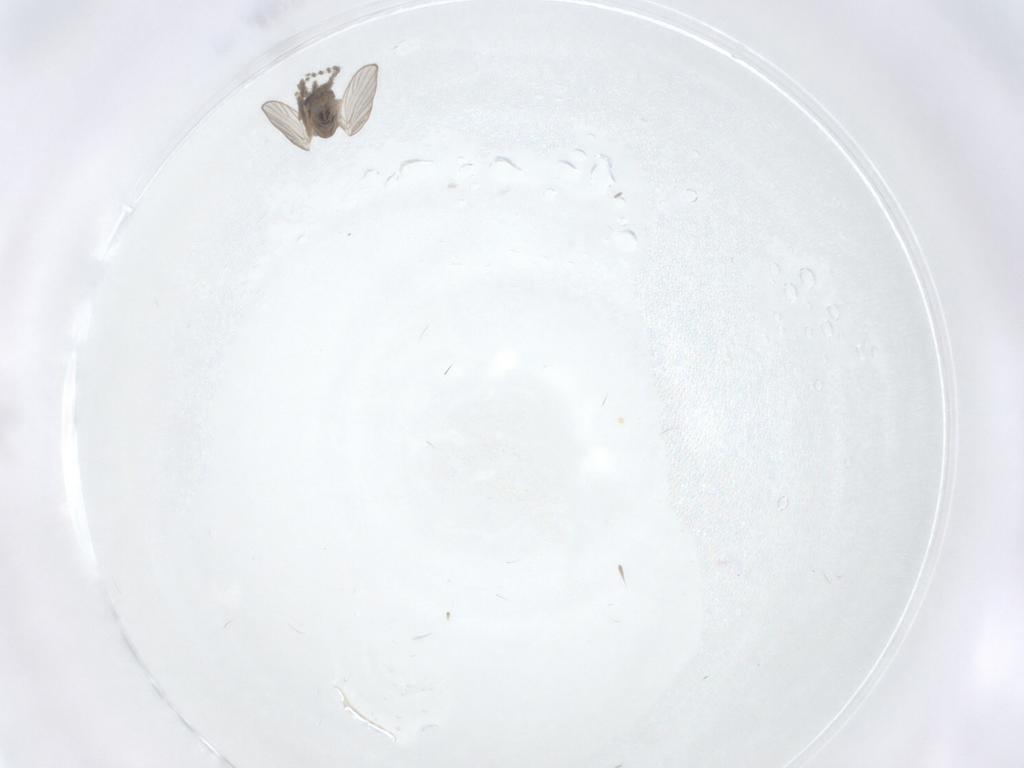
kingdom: Animalia
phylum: Arthropoda
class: Insecta
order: Diptera
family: Psychodidae
